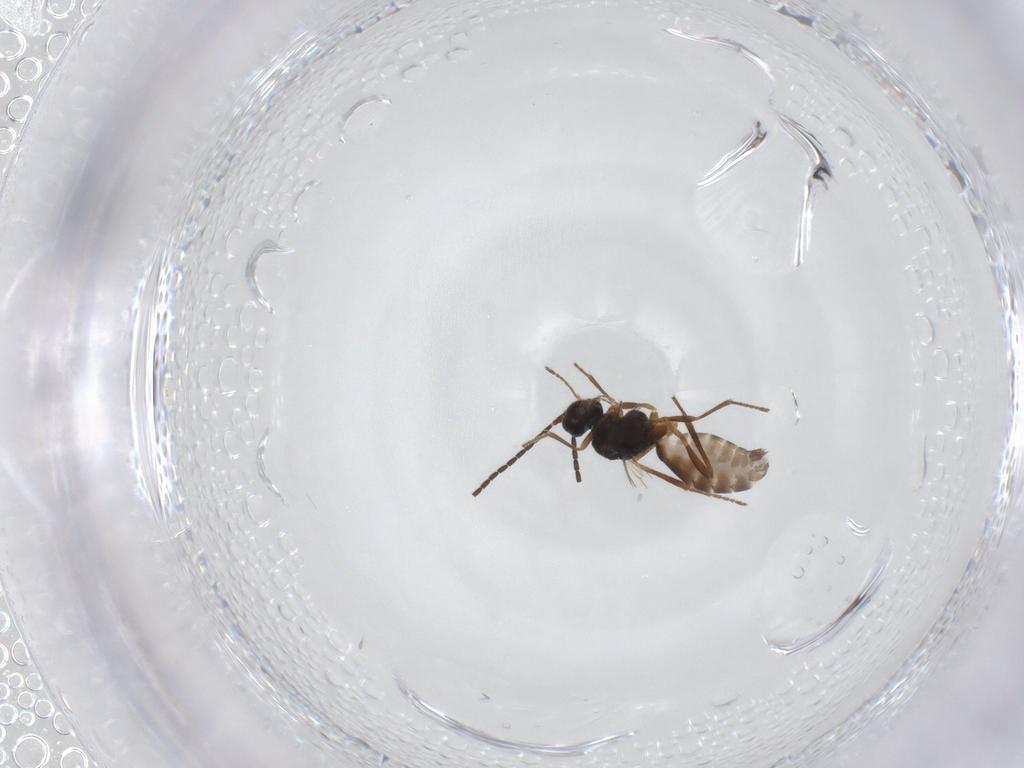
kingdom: Animalia
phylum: Arthropoda
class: Insecta
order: Hymenoptera
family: Braconidae
